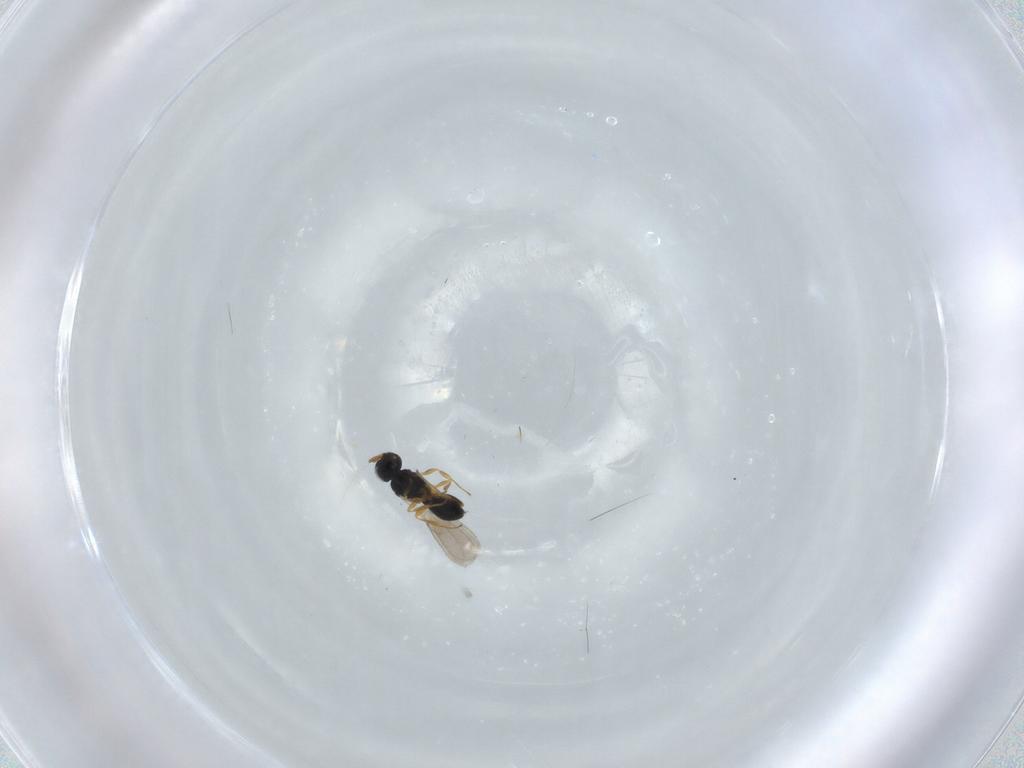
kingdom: Animalia
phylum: Arthropoda
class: Insecta
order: Hymenoptera
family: Scelionidae
